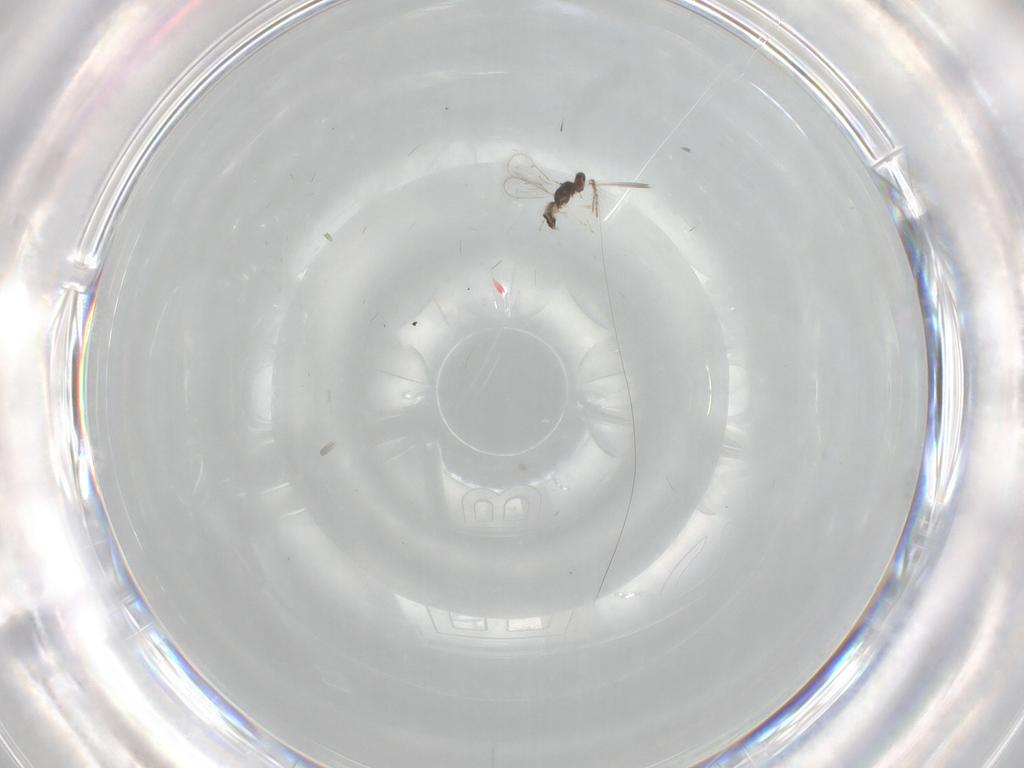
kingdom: Animalia
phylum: Arthropoda
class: Insecta
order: Hymenoptera
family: Eulophidae
